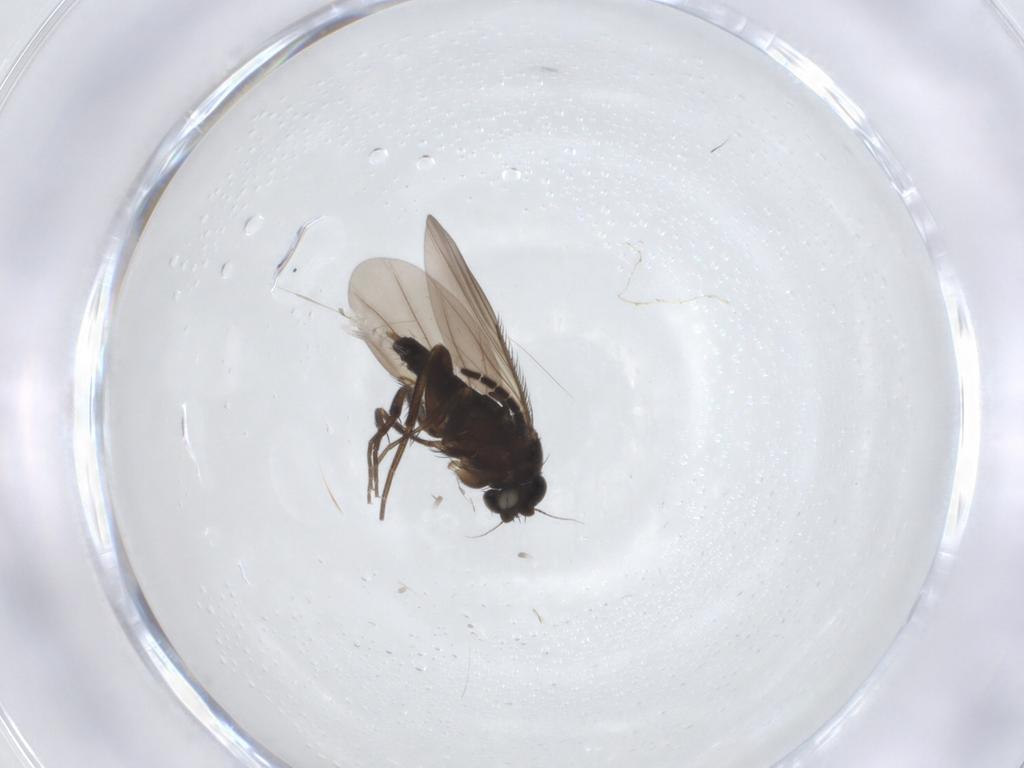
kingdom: Animalia
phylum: Arthropoda
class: Insecta
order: Diptera
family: Phoridae
